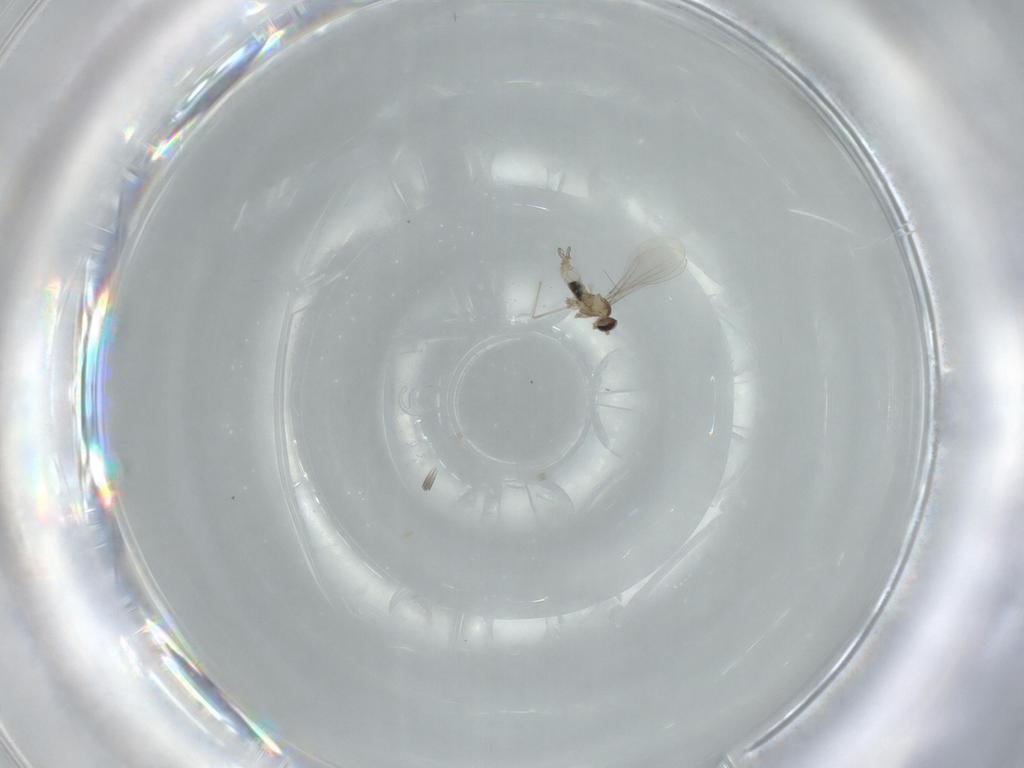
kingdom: Animalia
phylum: Arthropoda
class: Insecta
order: Diptera
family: Cecidomyiidae
